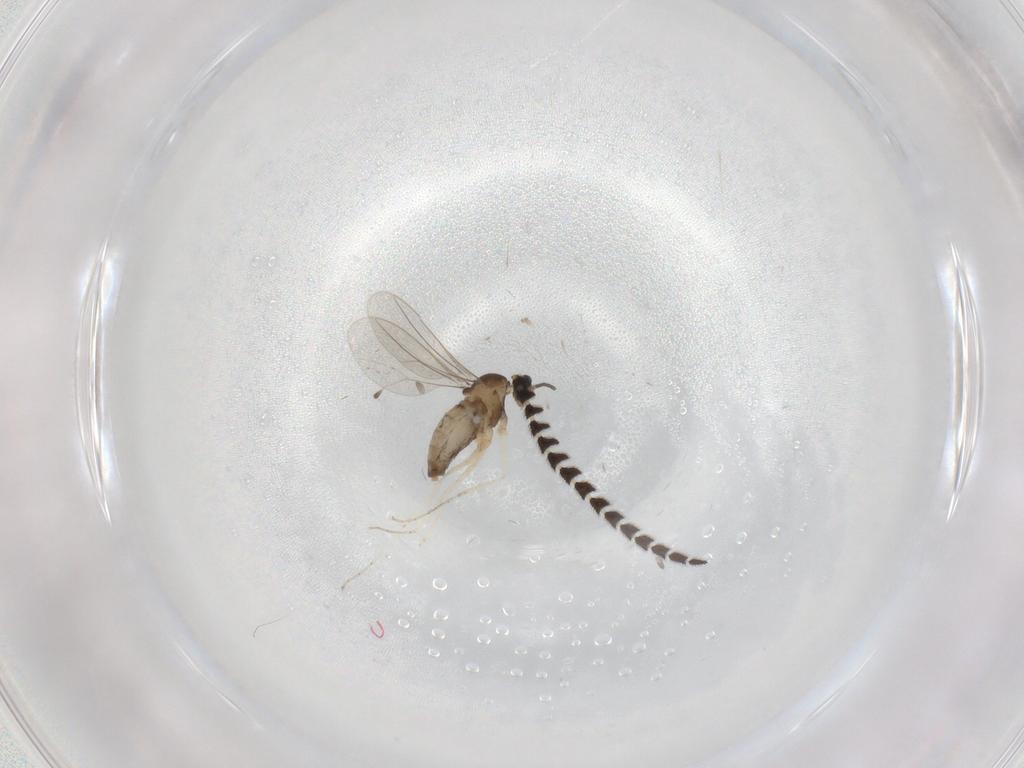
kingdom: Animalia
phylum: Arthropoda
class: Insecta
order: Diptera
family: Cecidomyiidae
